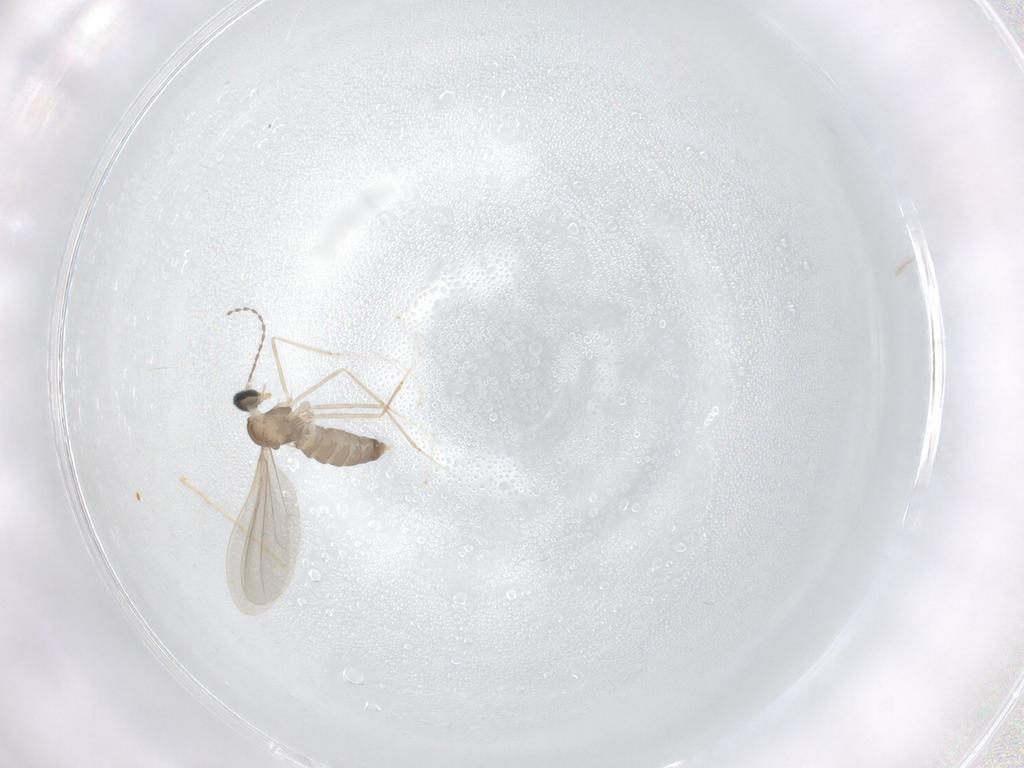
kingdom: Animalia
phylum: Arthropoda
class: Insecta
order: Diptera
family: Cecidomyiidae
